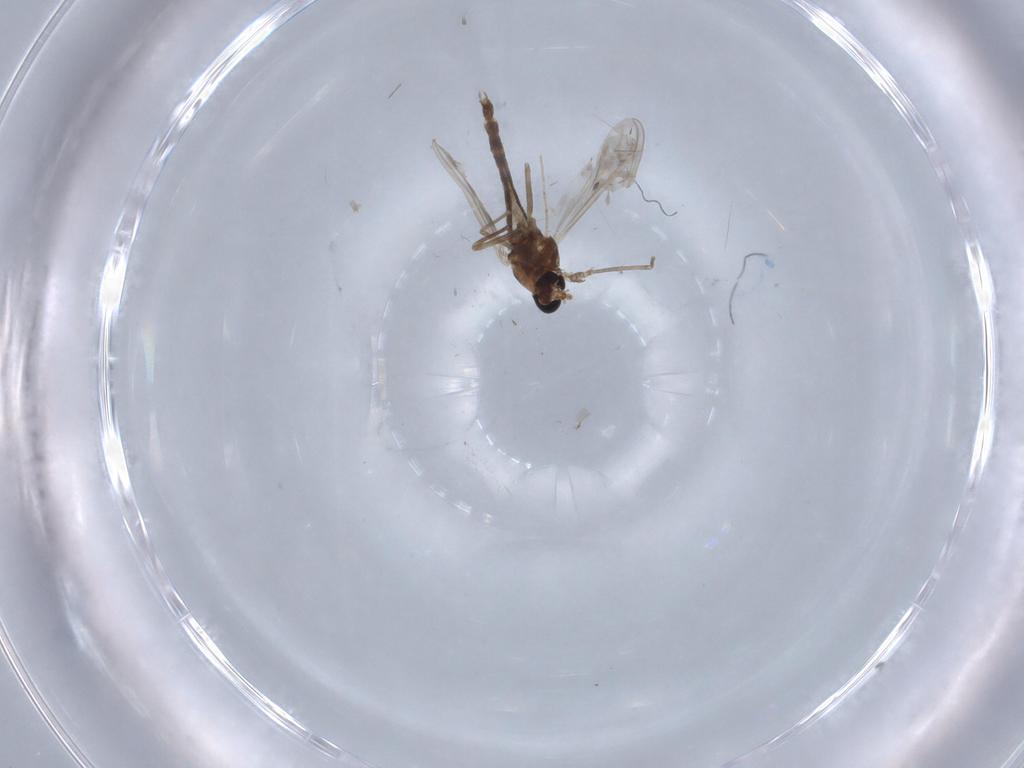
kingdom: Animalia
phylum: Arthropoda
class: Insecta
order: Diptera
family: Chironomidae
